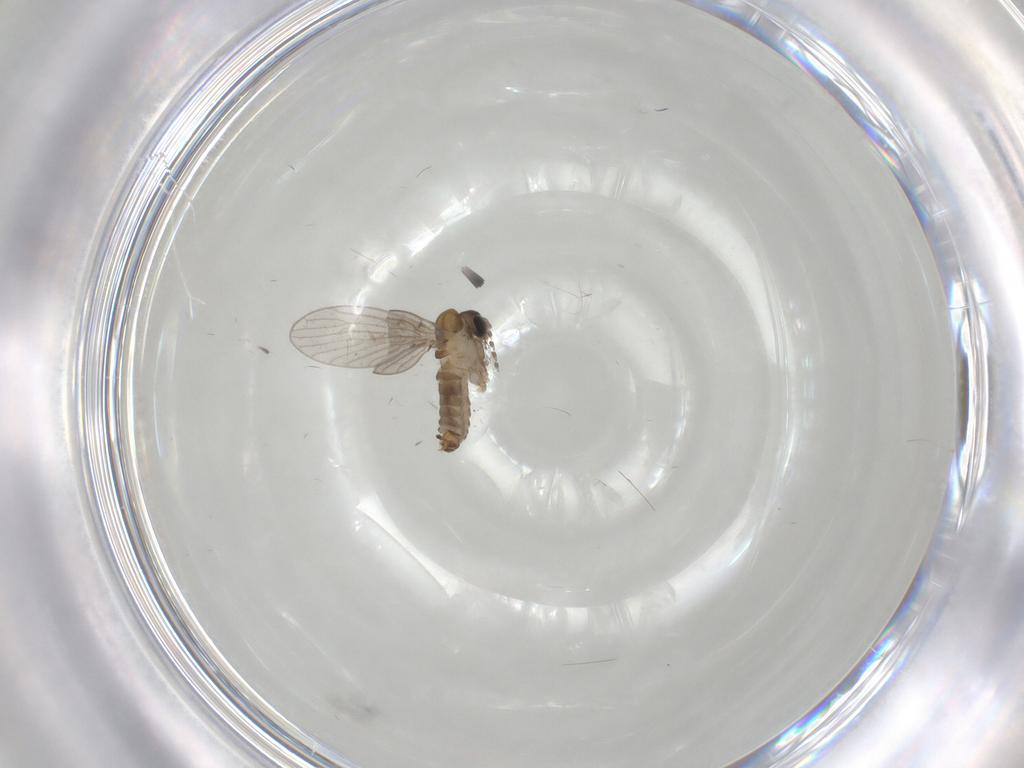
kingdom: Animalia
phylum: Arthropoda
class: Insecta
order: Diptera
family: Ceratopogonidae
